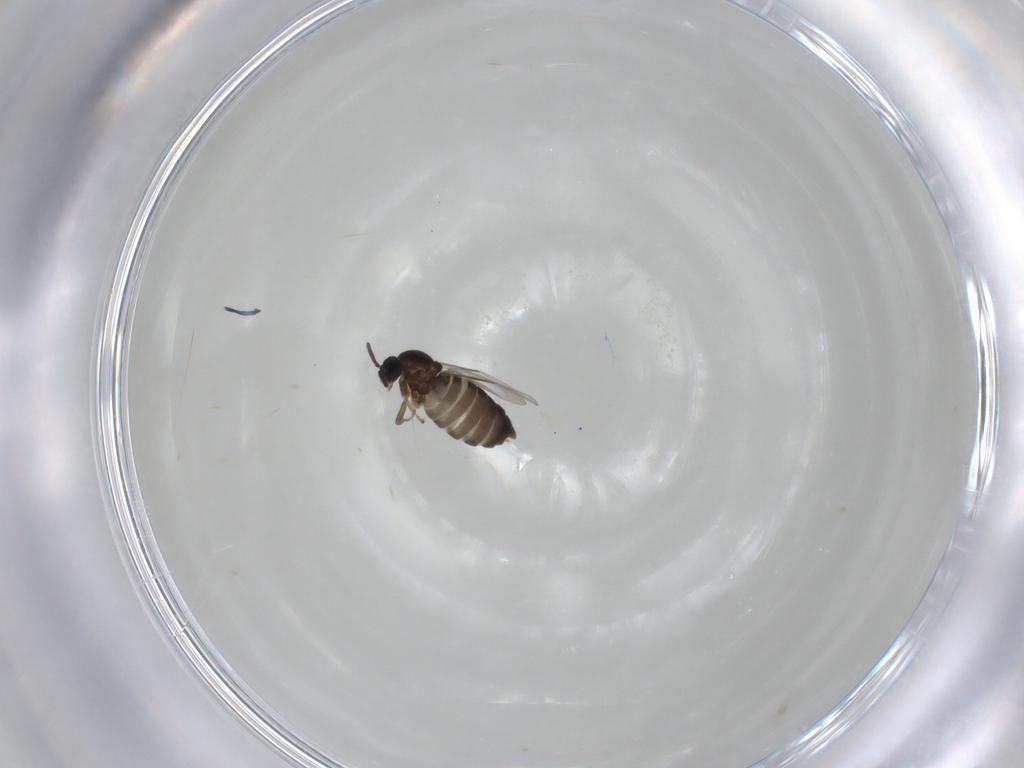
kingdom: Animalia
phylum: Arthropoda
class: Insecta
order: Diptera
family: Scatopsidae
